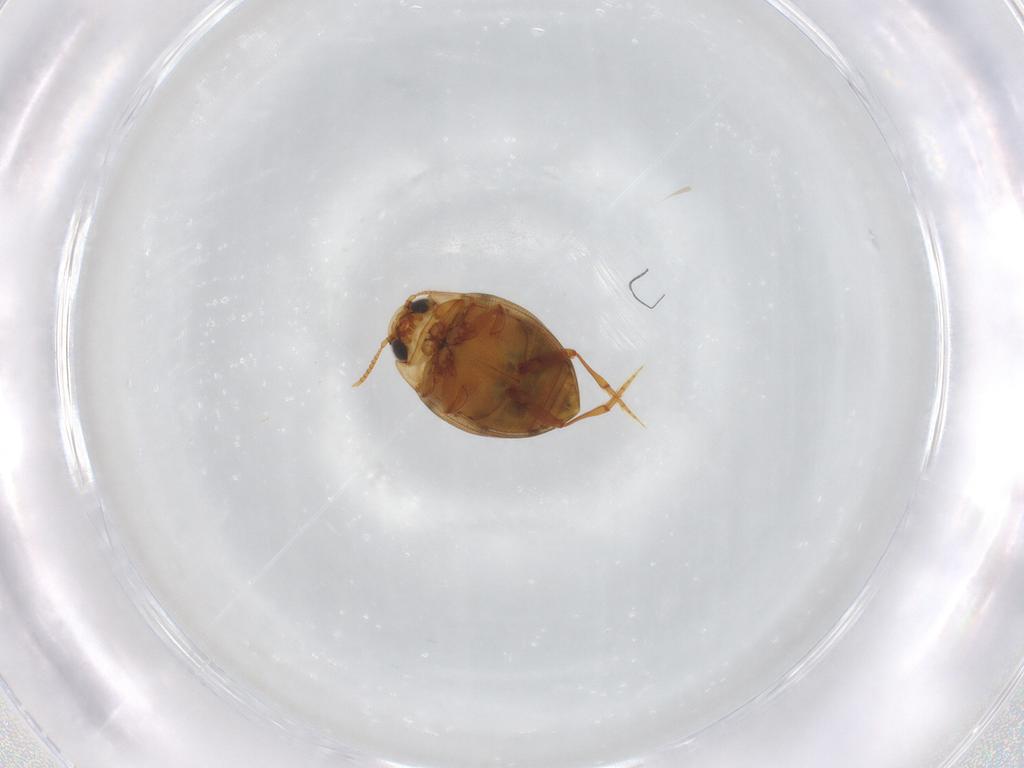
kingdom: Animalia
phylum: Arthropoda
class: Insecta
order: Coleoptera
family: Dytiscidae
